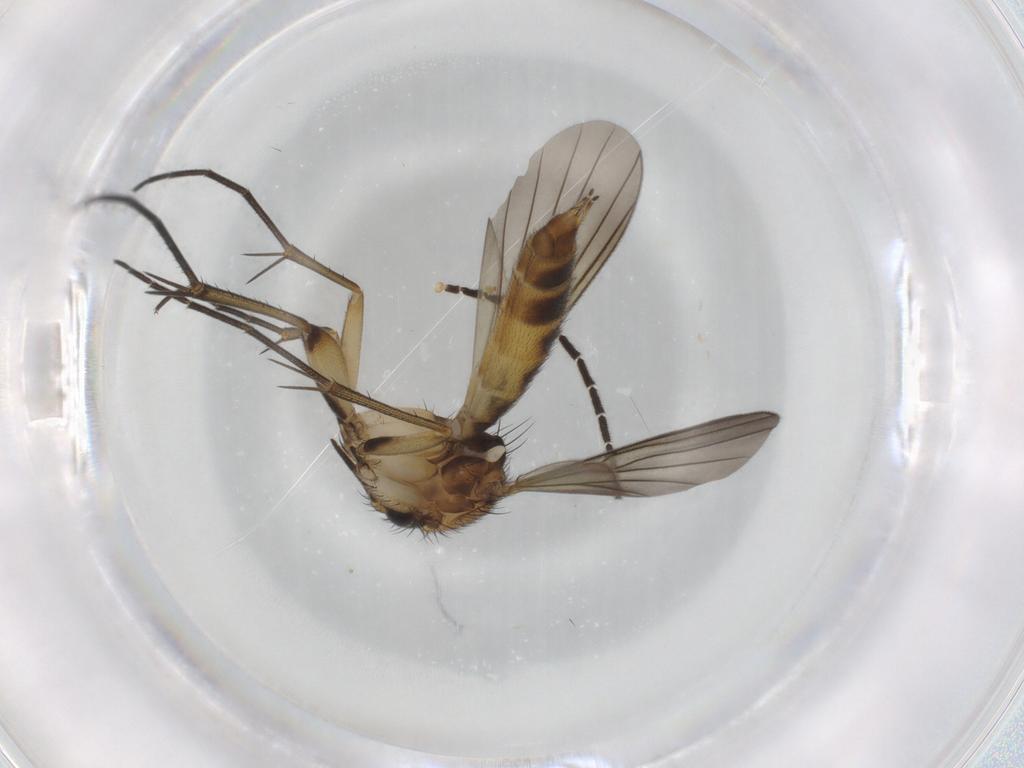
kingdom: Animalia
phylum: Arthropoda
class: Insecta
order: Diptera
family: Mycetophilidae
